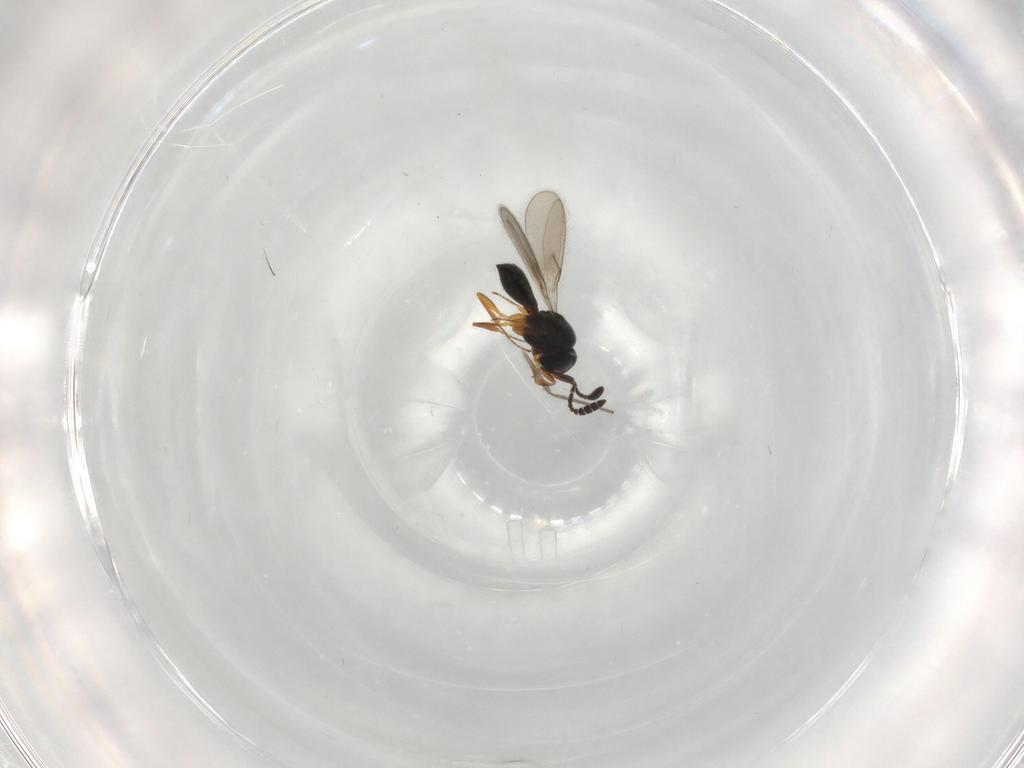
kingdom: Animalia
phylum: Arthropoda
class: Insecta
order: Hymenoptera
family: Scelionidae
